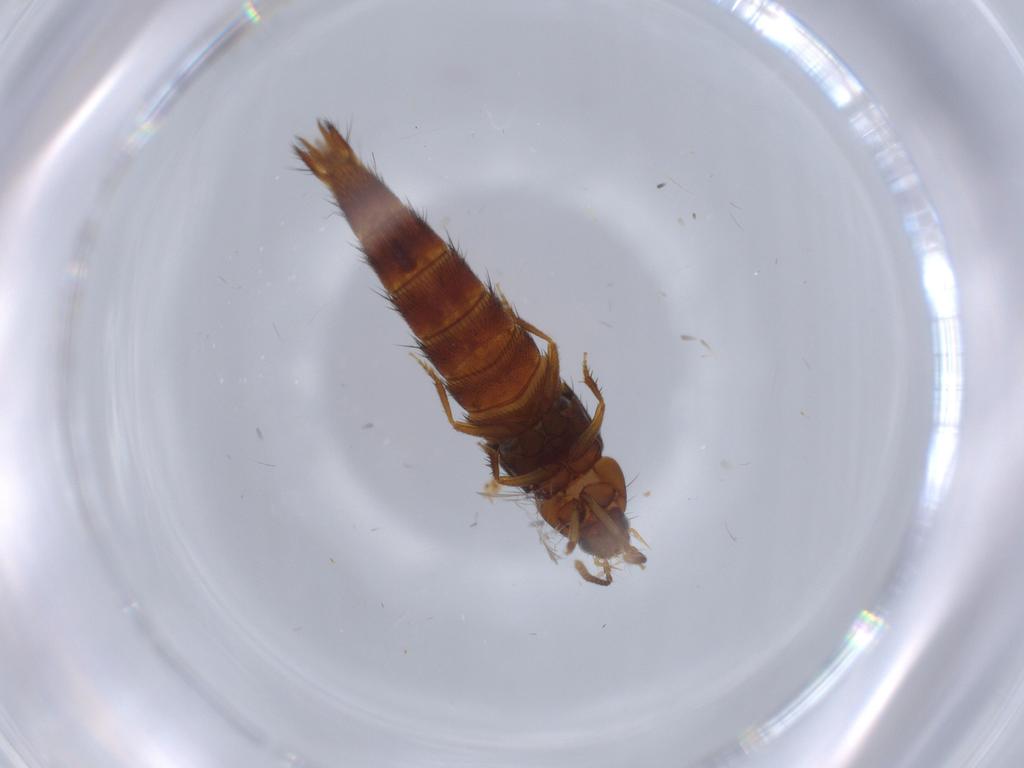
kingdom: Animalia
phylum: Arthropoda
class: Insecta
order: Coleoptera
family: Staphylinidae
